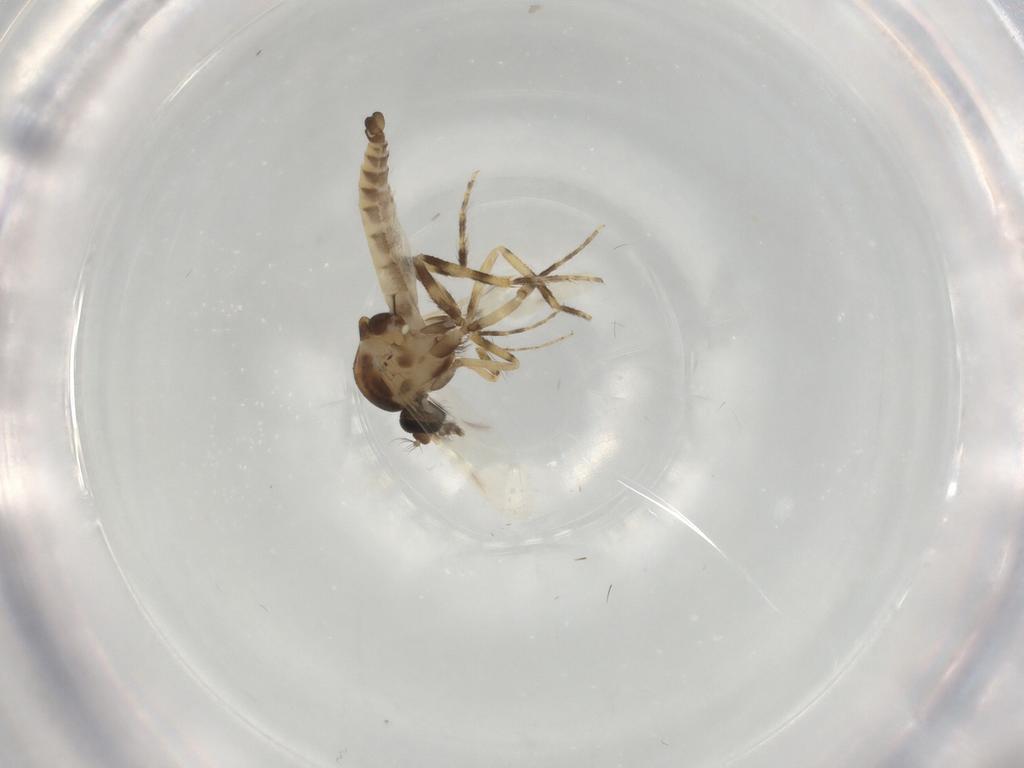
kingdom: Animalia
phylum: Arthropoda
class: Insecta
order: Diptera
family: Ceratopogonidae
